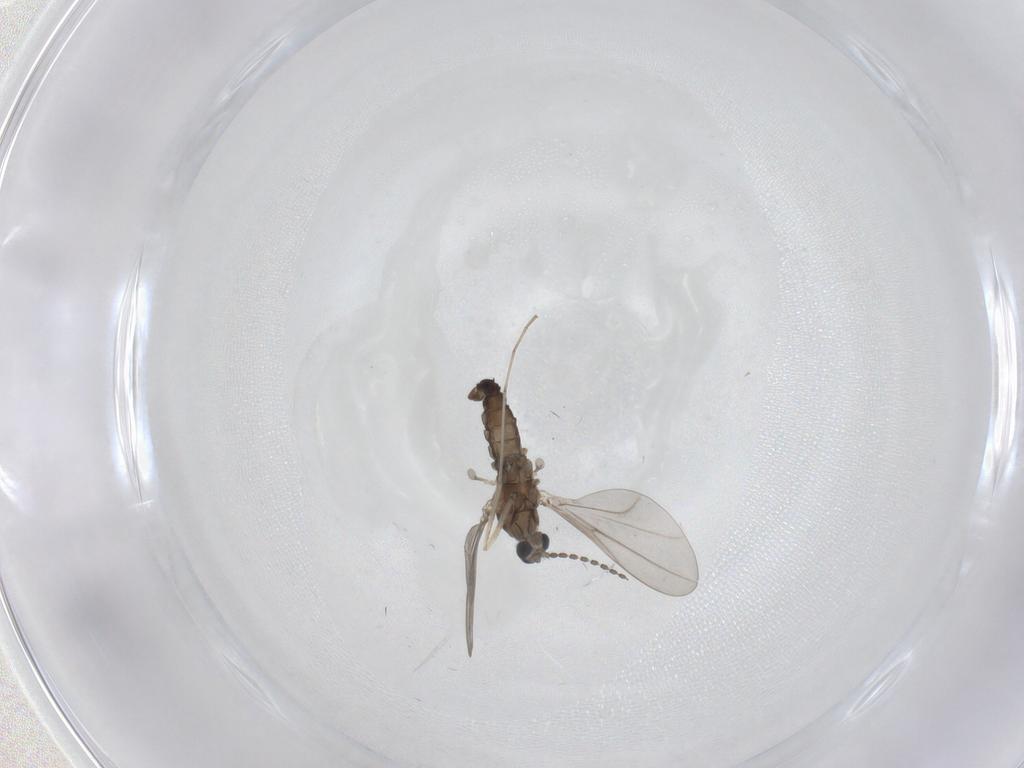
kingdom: Animalia
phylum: Arthropoda
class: Insecta
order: Diptera
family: Cecidomyiidae
